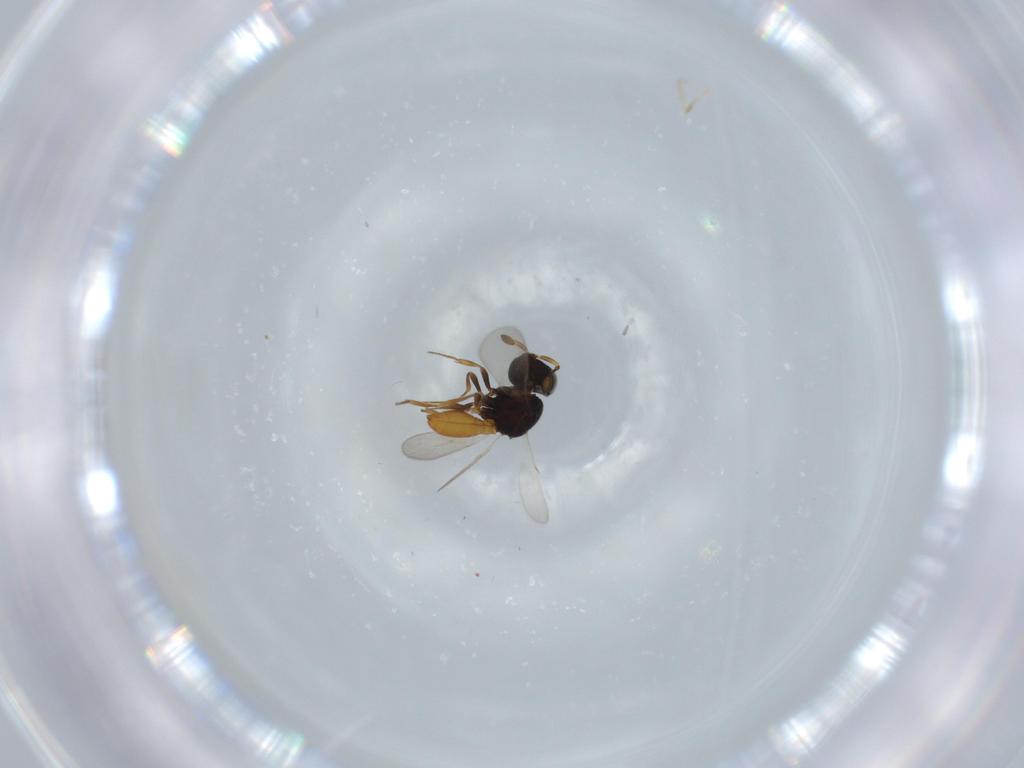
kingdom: Animalia
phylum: Arthropoda
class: Insecta
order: Hymenoptera
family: Scelionidae
